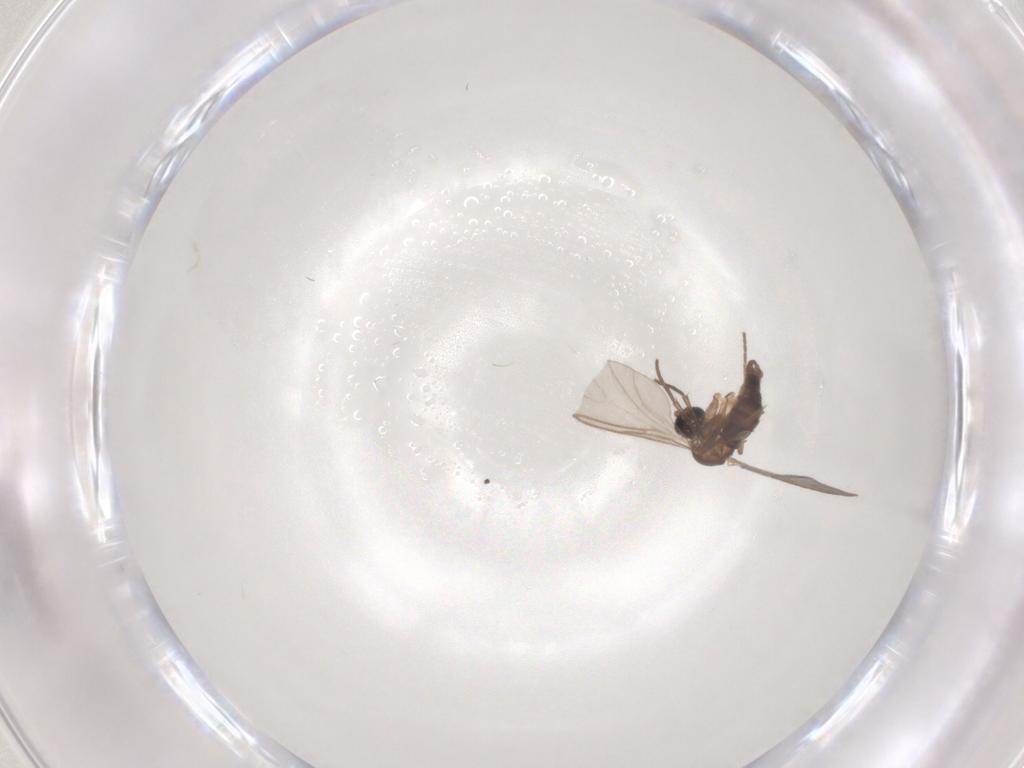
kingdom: Animalia
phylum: Arthropoda
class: Insecta
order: Diptera
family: Sciaridae
